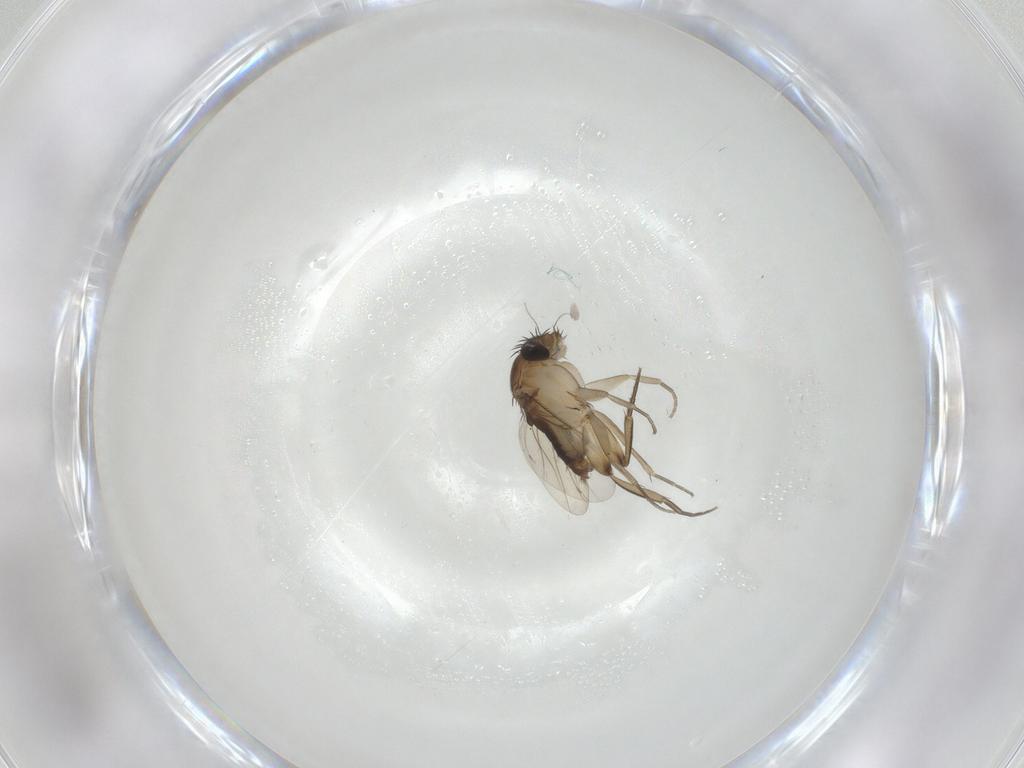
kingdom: Animalia
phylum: Arthropoda
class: Insecta
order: Diptera
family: Phoridae
